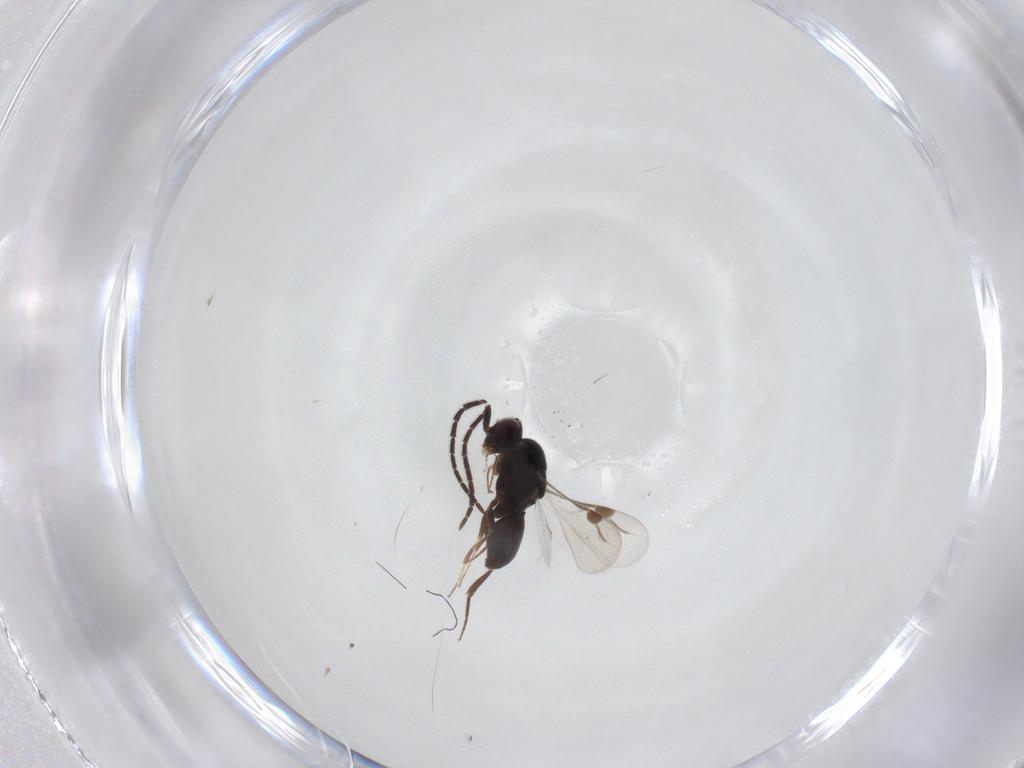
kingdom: Animalia
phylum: Arthropoda
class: Insecta
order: Hymenoptera
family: Megaspilidae
